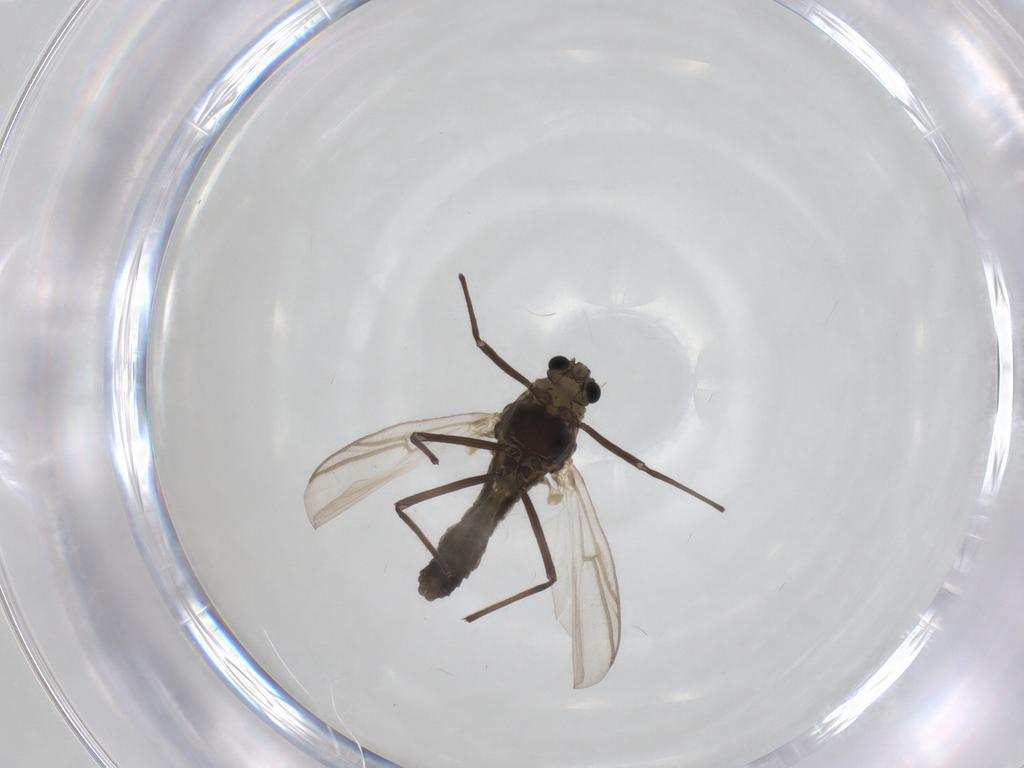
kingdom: Animalia
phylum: Arthropoda
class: Insecta
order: Diptera
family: Chironomidae
